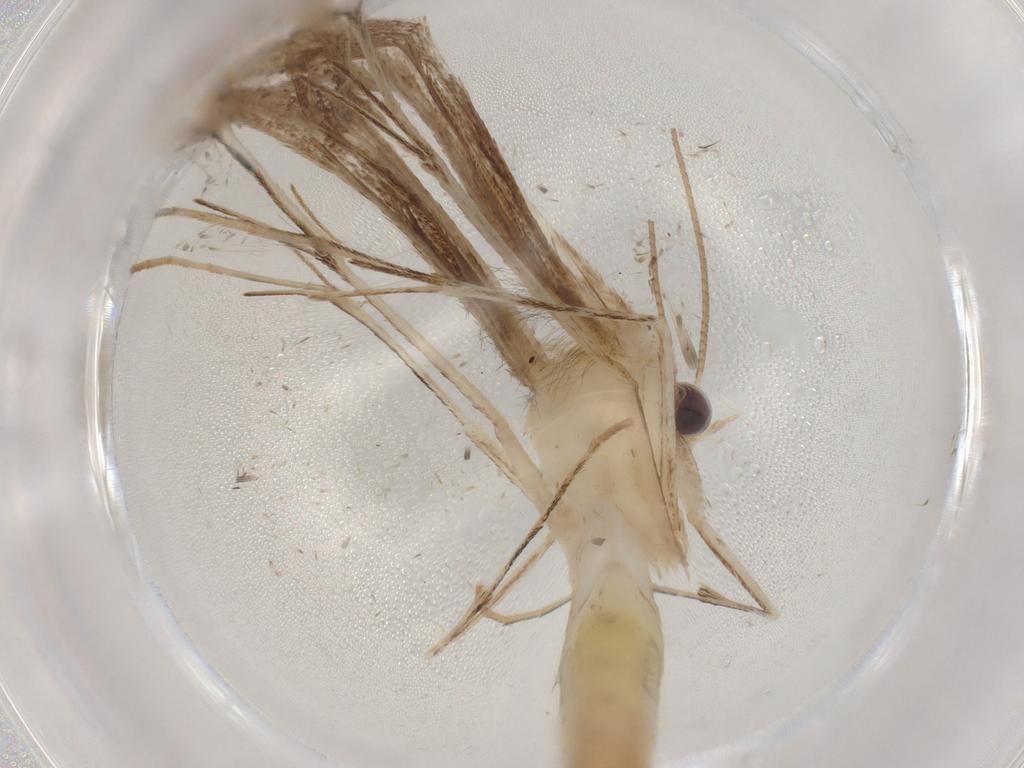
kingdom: Animalia
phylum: Arthropoda
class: Insecta
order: Lepidoptera
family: Elachistidae
